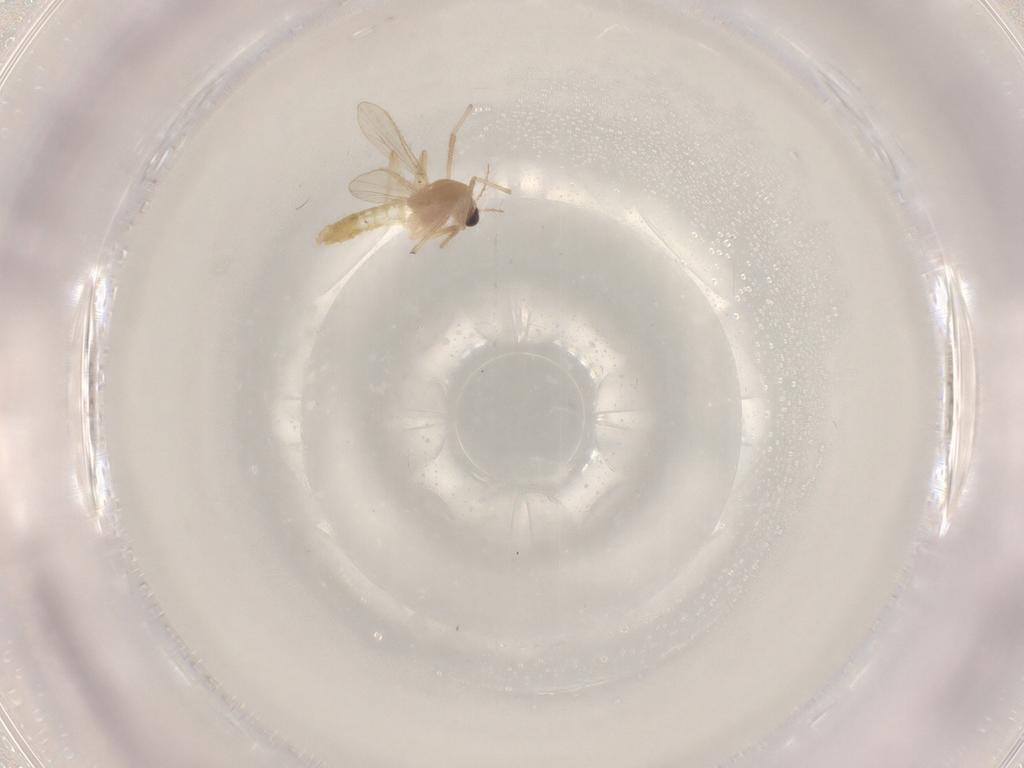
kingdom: Animalia
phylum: Arthropoda
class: Insecta
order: Diptera
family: Chironomidae
